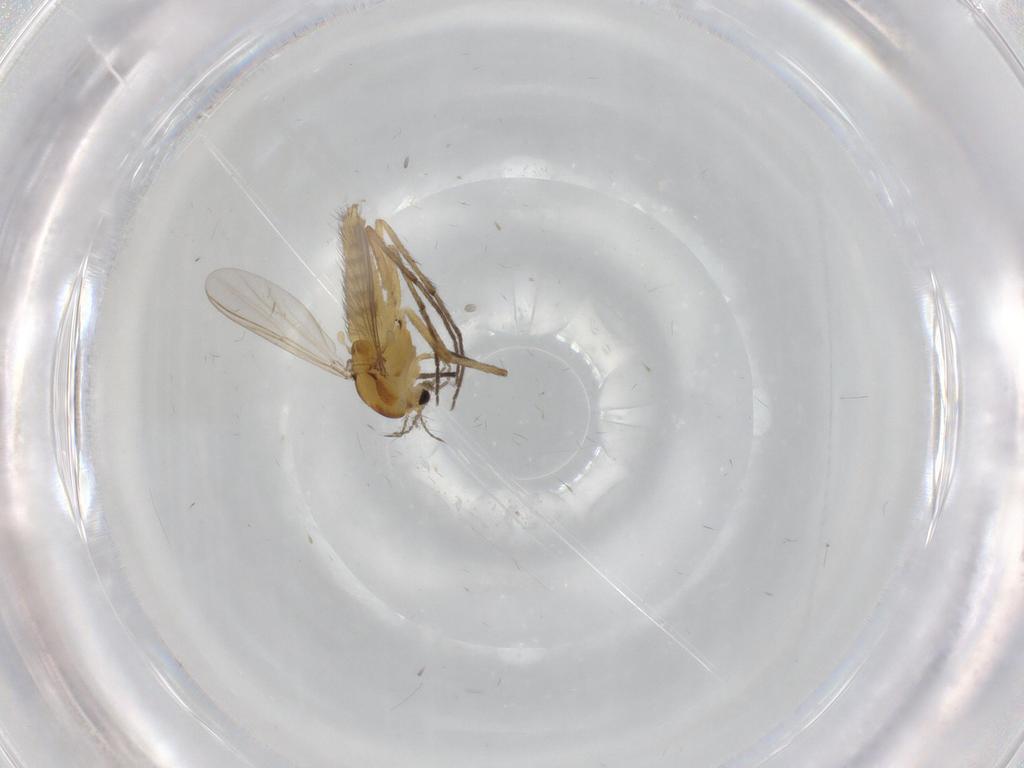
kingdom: Animalia
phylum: Arthropoda
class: Insecta
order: Diptera
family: Chironomidae
